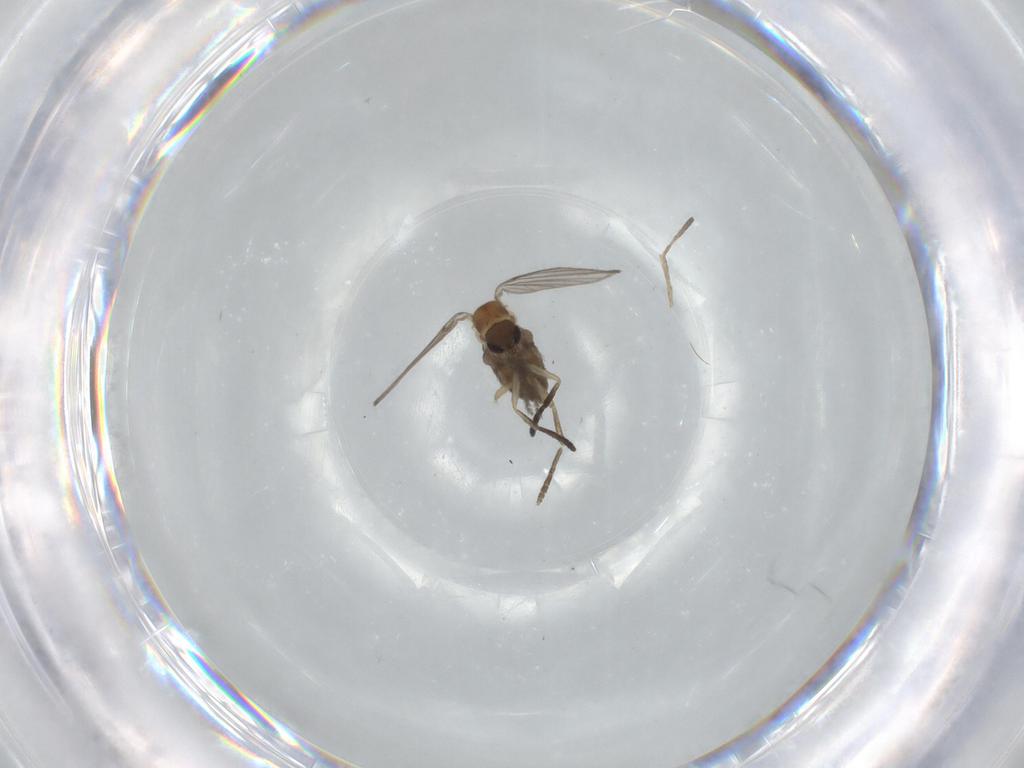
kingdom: Animalia
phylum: Arthropoda
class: Insecta
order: Diptera
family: Psychodidae
